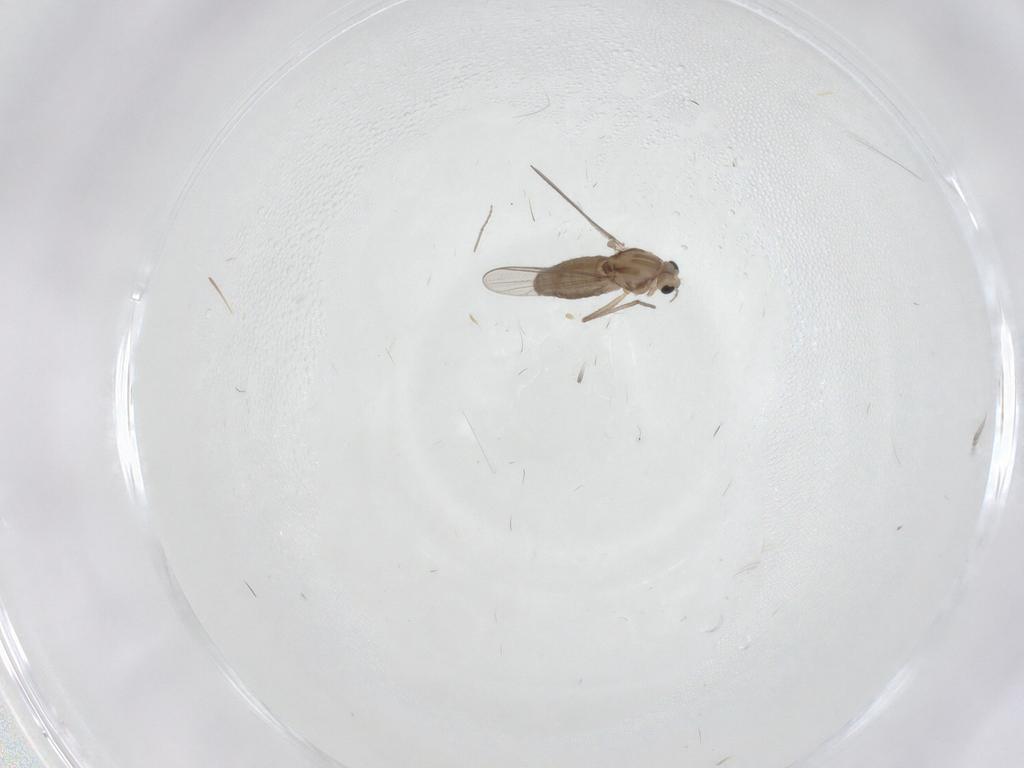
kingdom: Animalia
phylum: Arthropoda
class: Insecta
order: Diptera
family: Chironomidae
